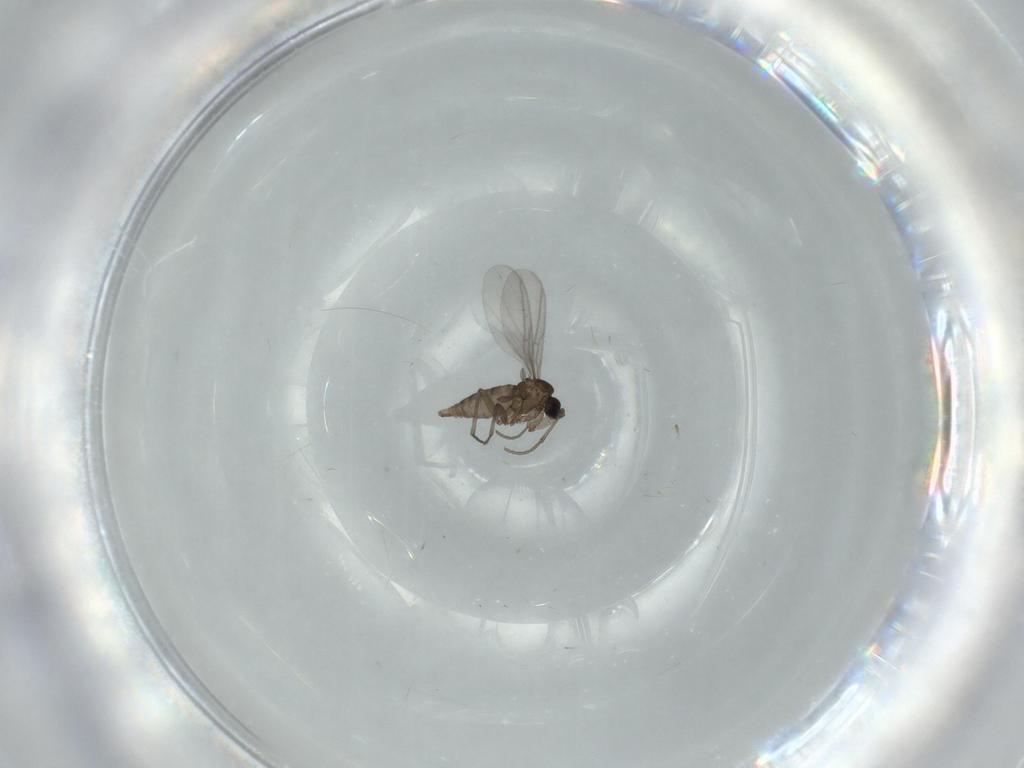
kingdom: Animalia
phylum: Arthropoda
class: Insecta
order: Diptera
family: Sciaridae
